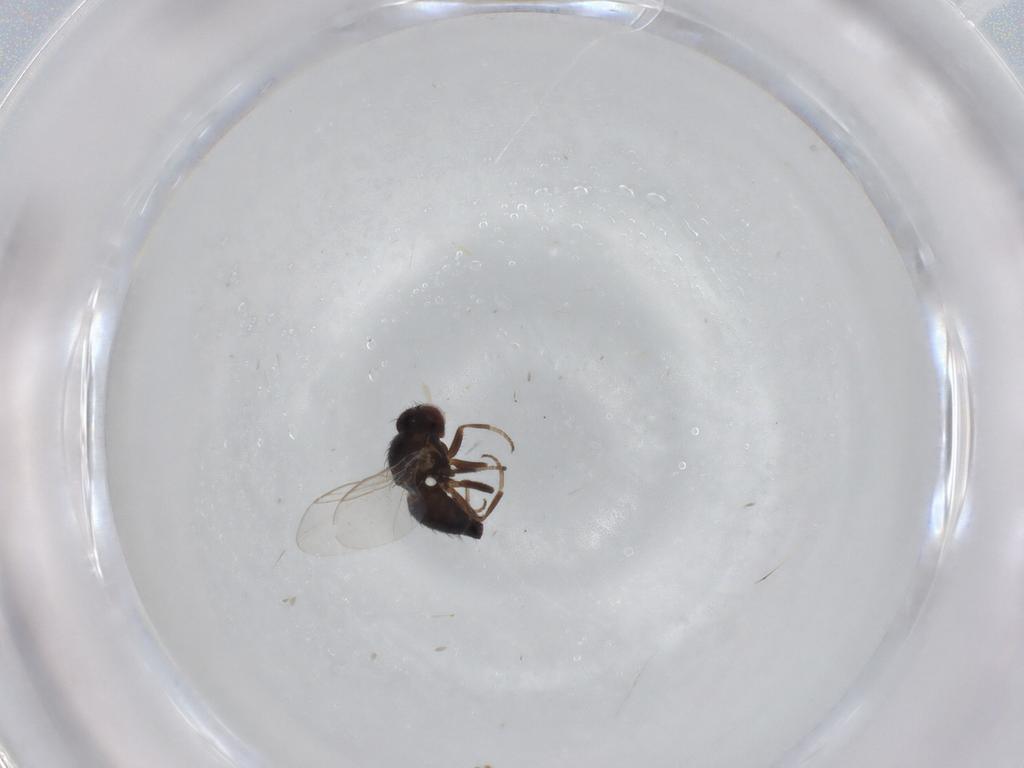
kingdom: Animalia
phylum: Arthropoda
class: Insecta
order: Diptera
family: Agromyzidae
